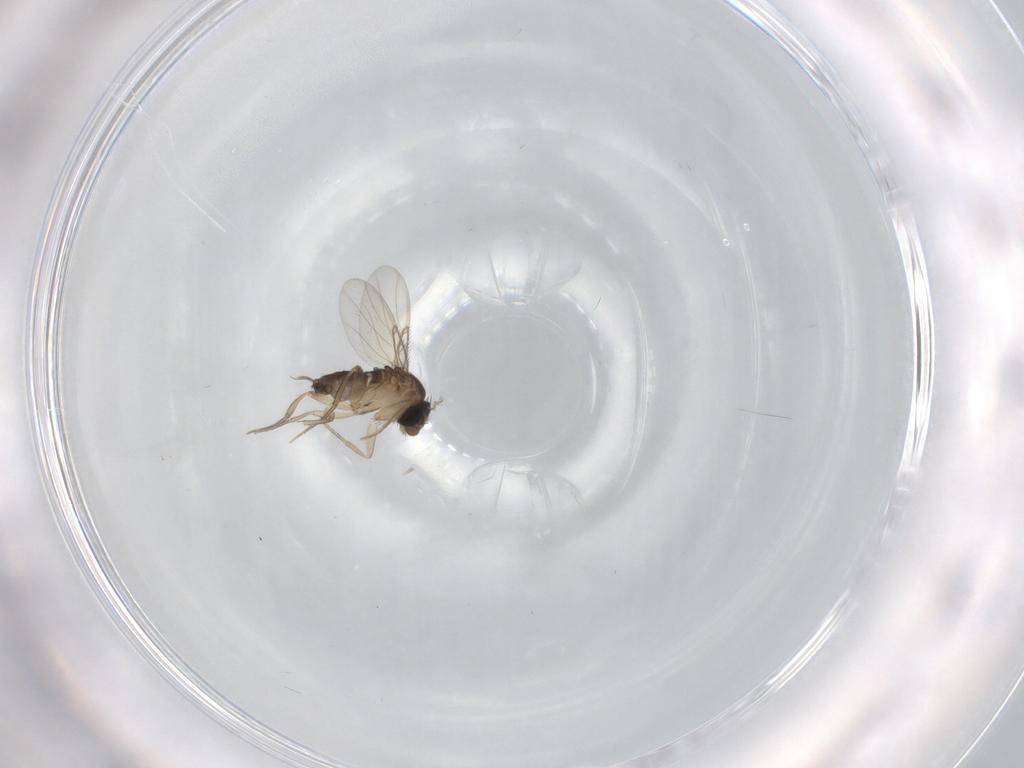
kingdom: Animalia
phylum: Arthropoda
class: Insecta
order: Diptera
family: Phoridae
